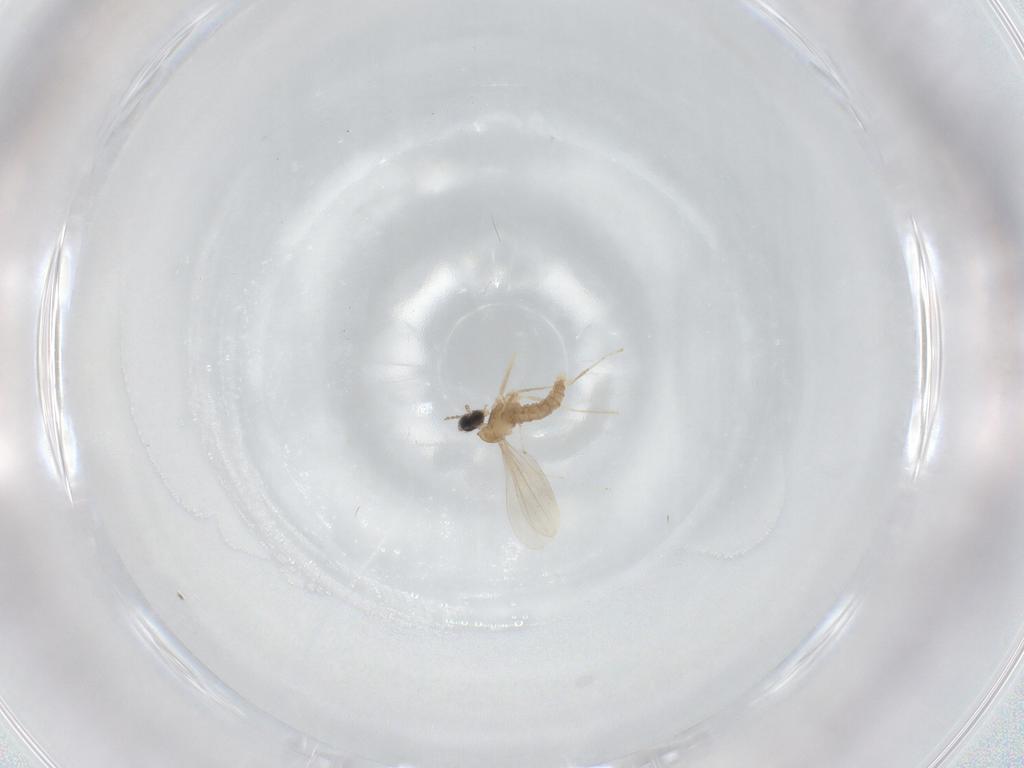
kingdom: Animalia
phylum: Arthropoda
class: Insecta
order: Diptera
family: Cecidomyiidae
